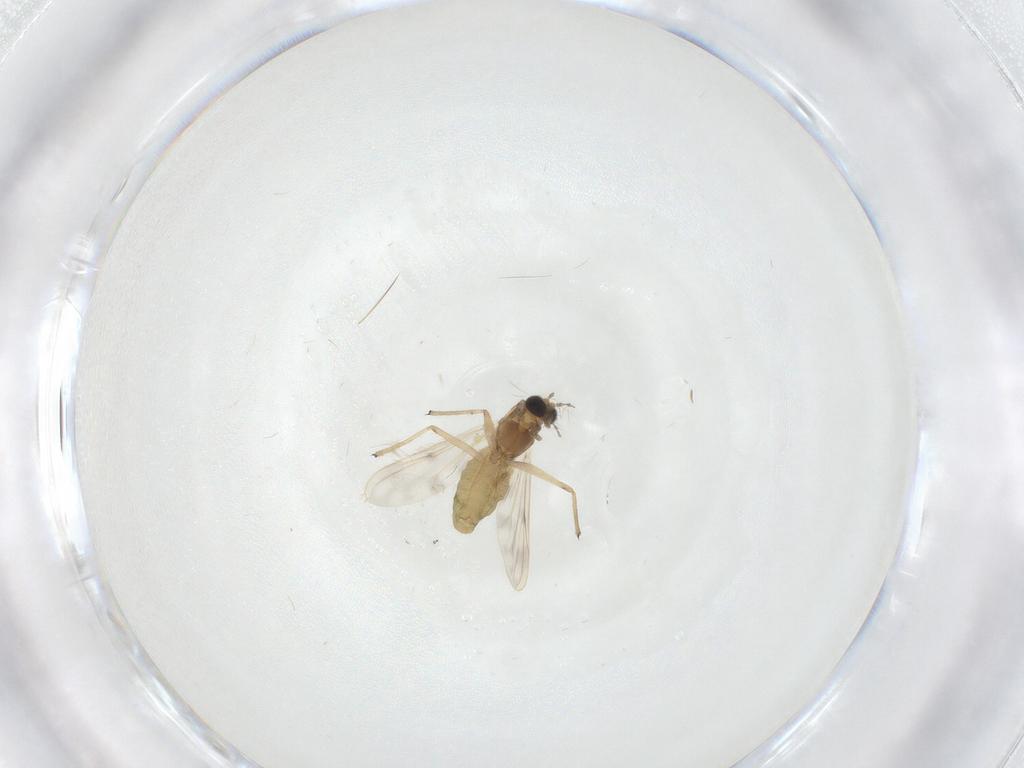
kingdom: Animalia
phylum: Arthropoda
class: Insecta
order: Diptera
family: Chironomidae
